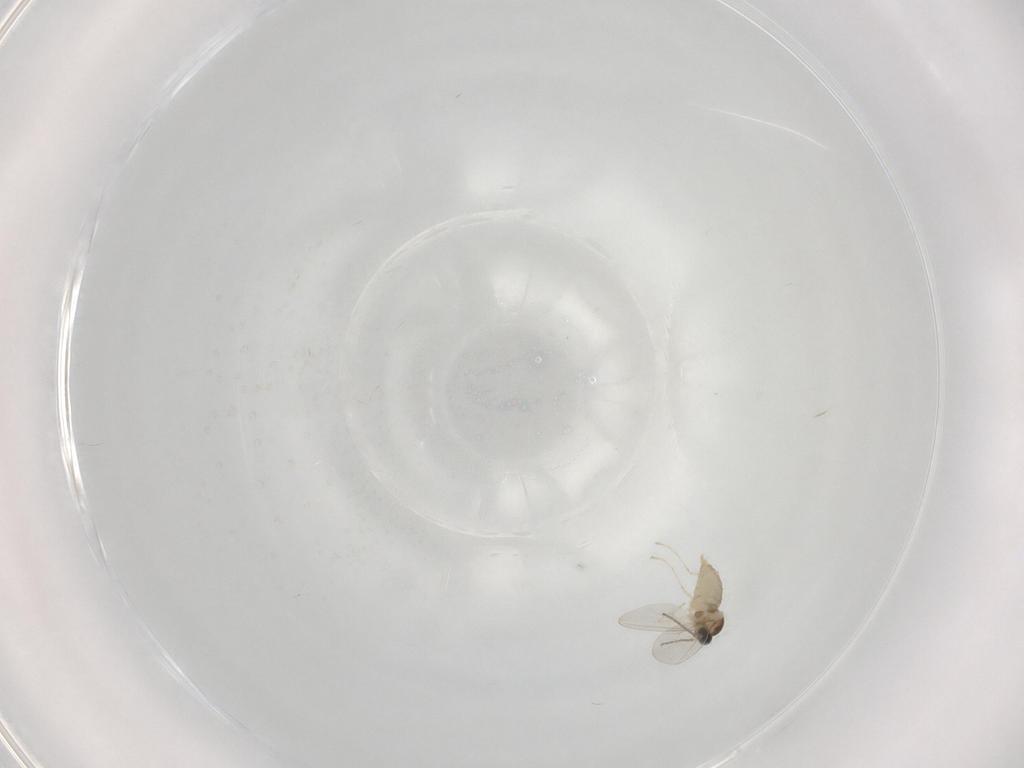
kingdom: Animalia
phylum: Arthropoda
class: Insecta
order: Diptera
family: Cecidomyiidae
